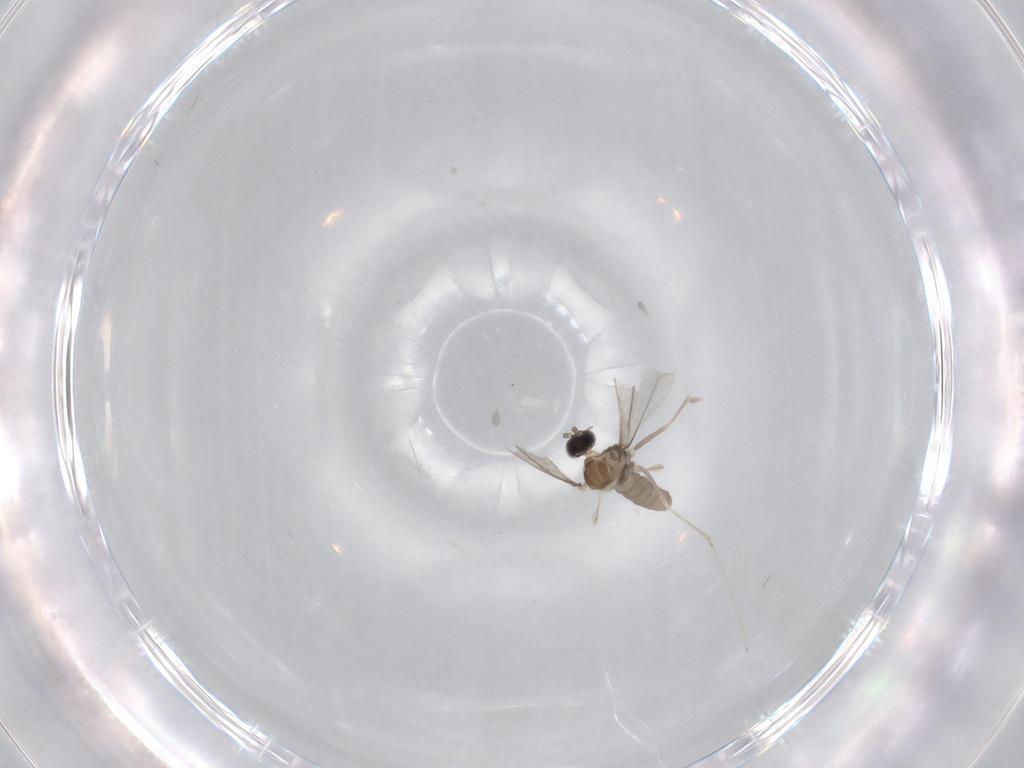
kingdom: Animalia
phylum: Arthropoda
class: Insecta
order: Diptera
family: Cecidomyiidae
